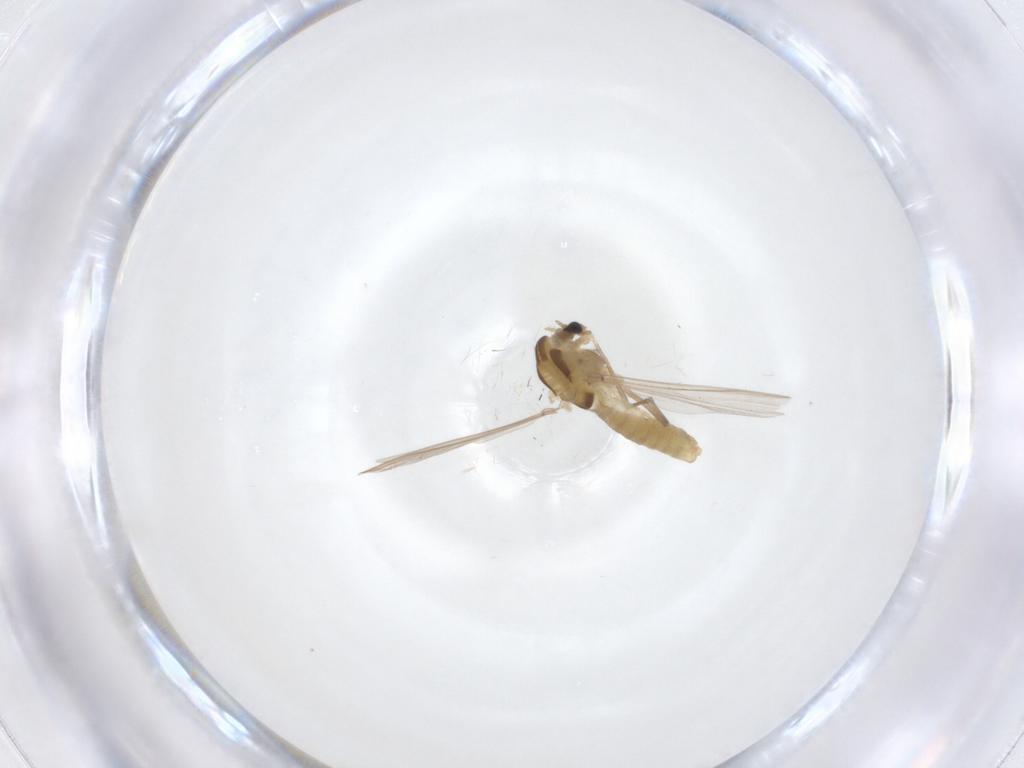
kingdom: Animalia
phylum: Arthropoda
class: Insecta
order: Diptera
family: Chironomidae
